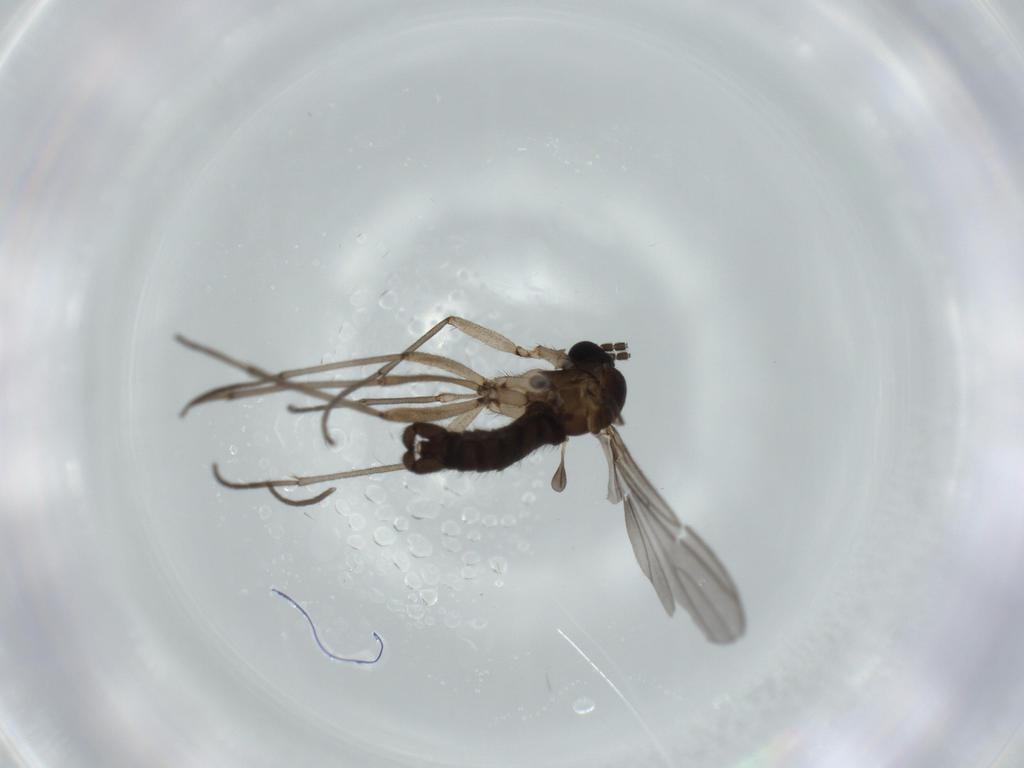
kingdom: Animalia
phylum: Arthropoda
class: Insecta
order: Diptera
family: Sciaridae
